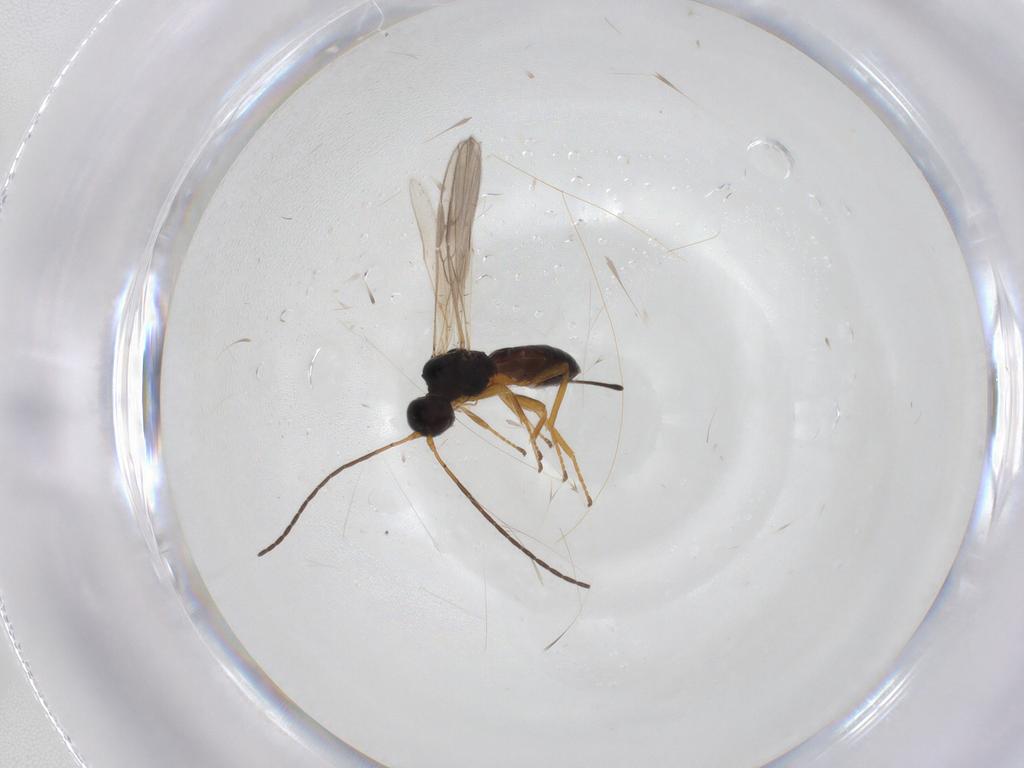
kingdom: Animalia
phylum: Arthropoda
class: Insecta
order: Hymenoptera
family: Braconidae
